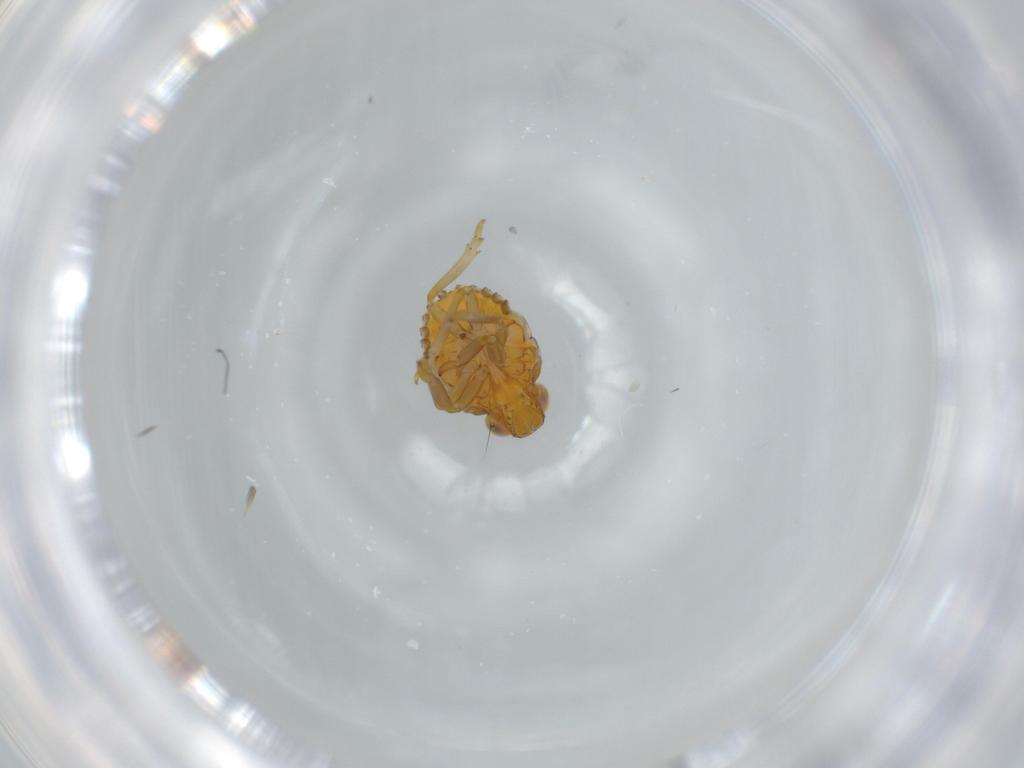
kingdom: Animalia
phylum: Arthropoda
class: Insecta
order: Hemiptera
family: Issidae
